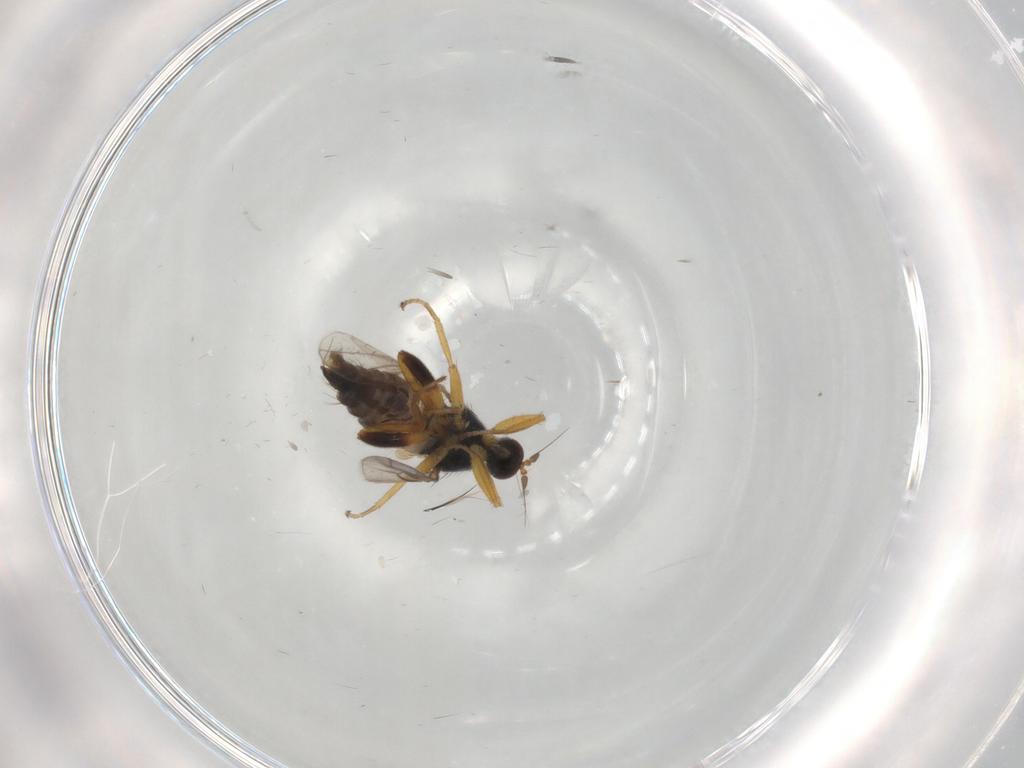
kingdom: Animalia
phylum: Arthropoda
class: Insecta
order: Diptera
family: Hybotidae
